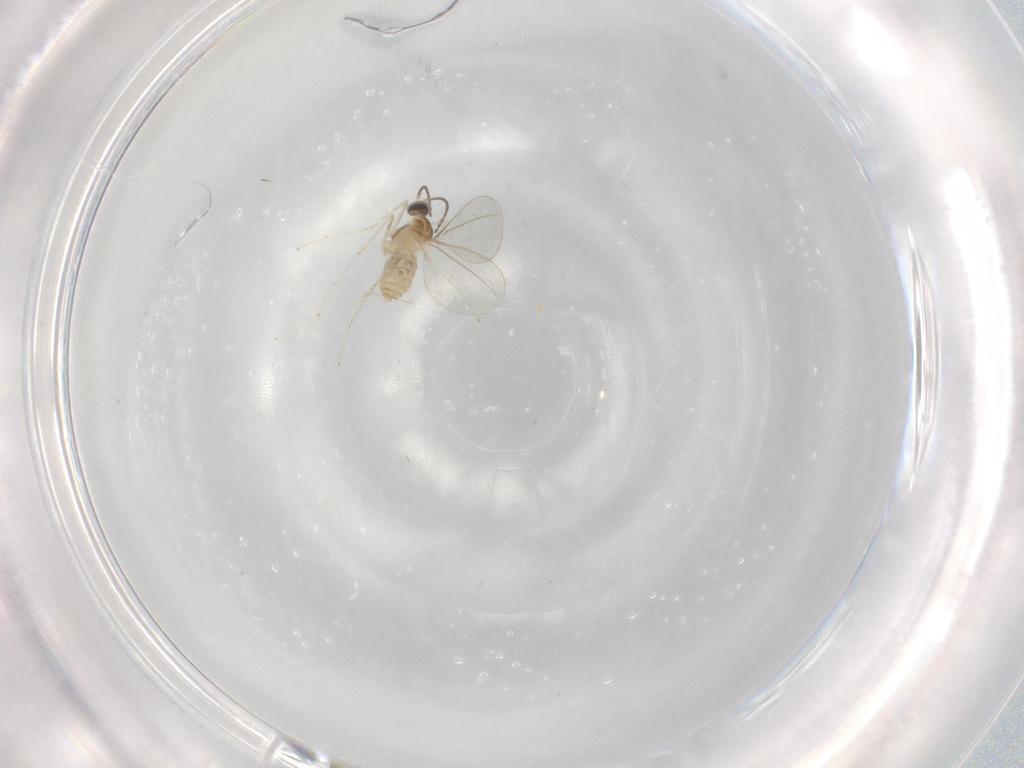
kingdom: Animalia
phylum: Arthropoda
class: Insecta
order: Diptera
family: Cecidomyiidae
